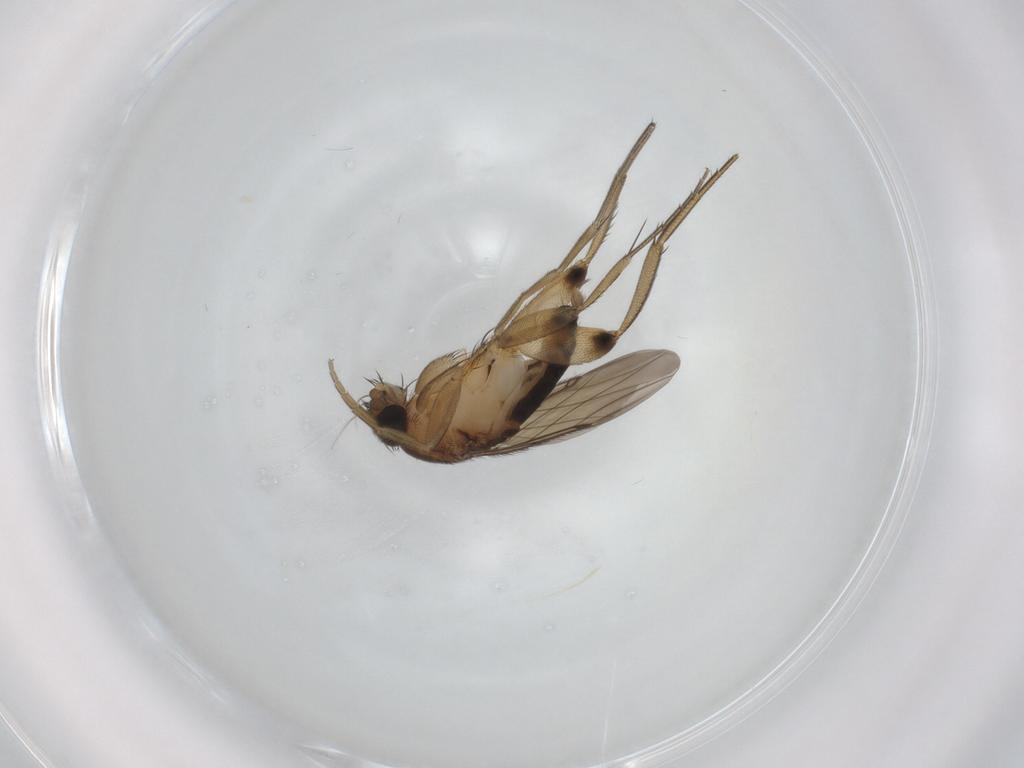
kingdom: Animalia
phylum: Arthropoda
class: Insecta
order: Diptera
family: Phoridae
